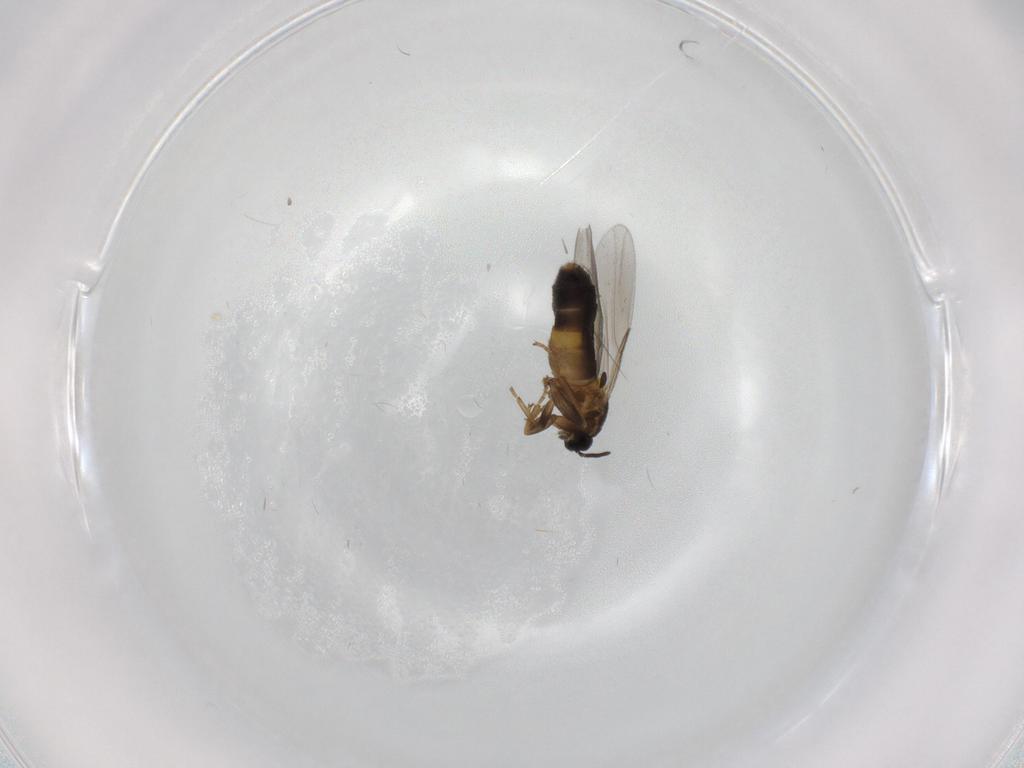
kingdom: Animalia
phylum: Arthropoda
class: Insecta
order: Diptera
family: Scatopsidae
